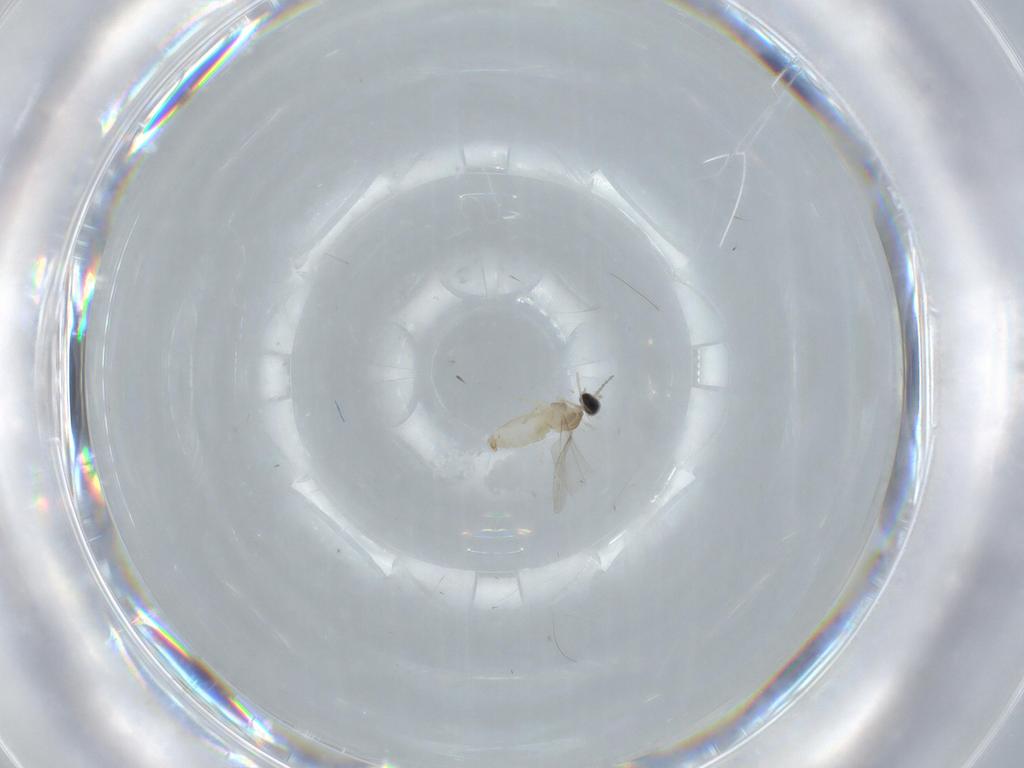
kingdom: Animalia
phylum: Arthropoda
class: Insecta
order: Diptera
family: Cecidomyiidae
